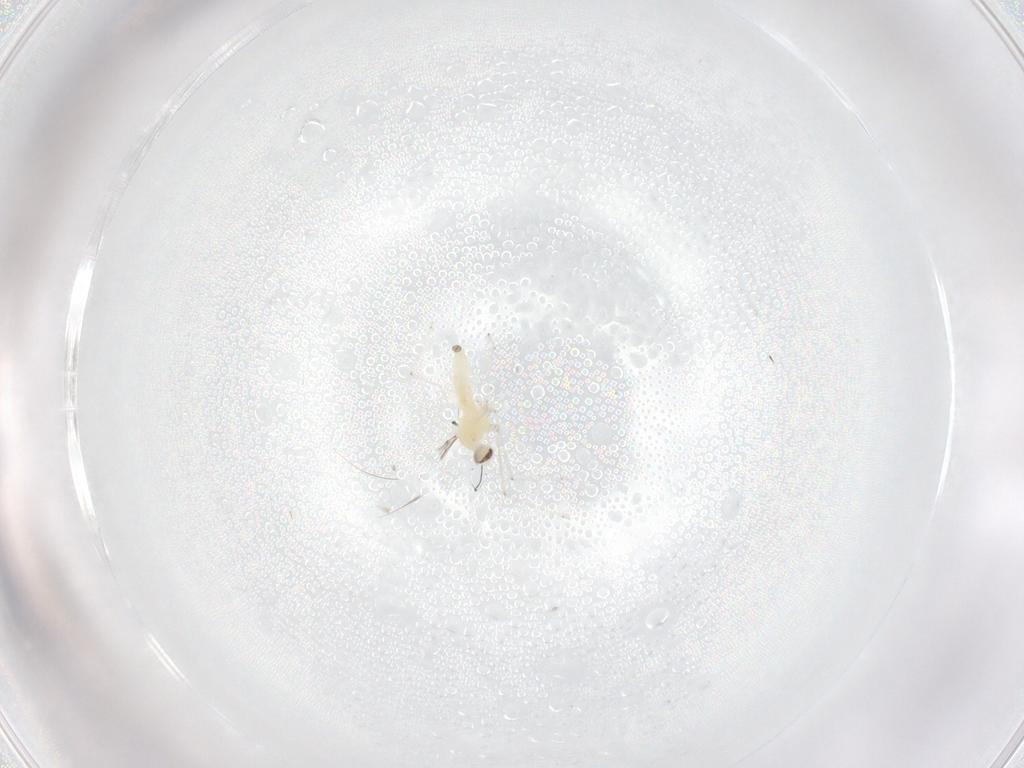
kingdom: Animalia
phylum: Arthropoda
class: Insecta
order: Diptera
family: Cecidomyiidae
